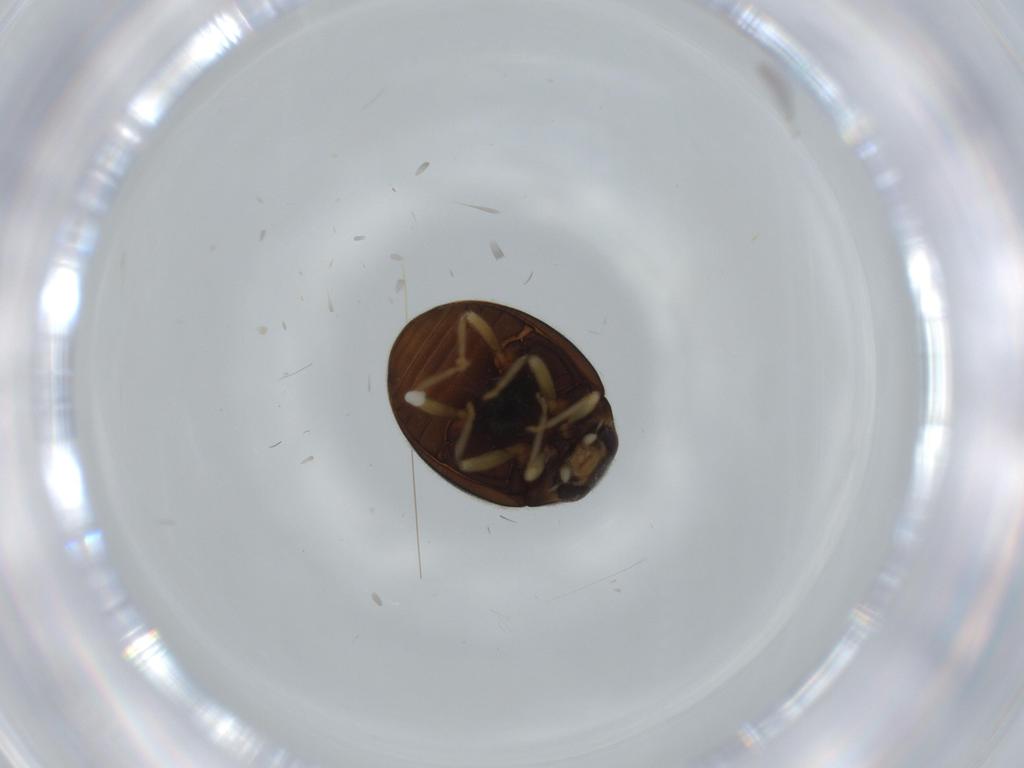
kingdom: Animalia
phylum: Arthropoda
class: Insecta
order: Coleoptera
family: Coccinellidae
